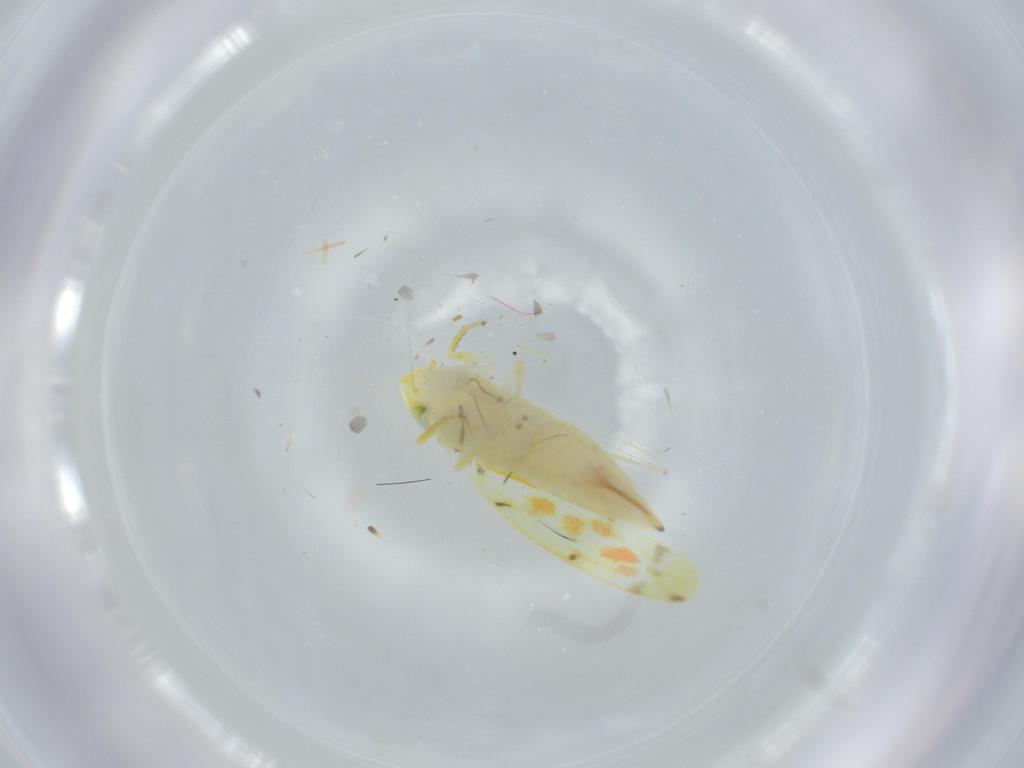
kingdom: Animalia
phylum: Arthropoda
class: Insecta
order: Hemiptera
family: Cicadellidae
